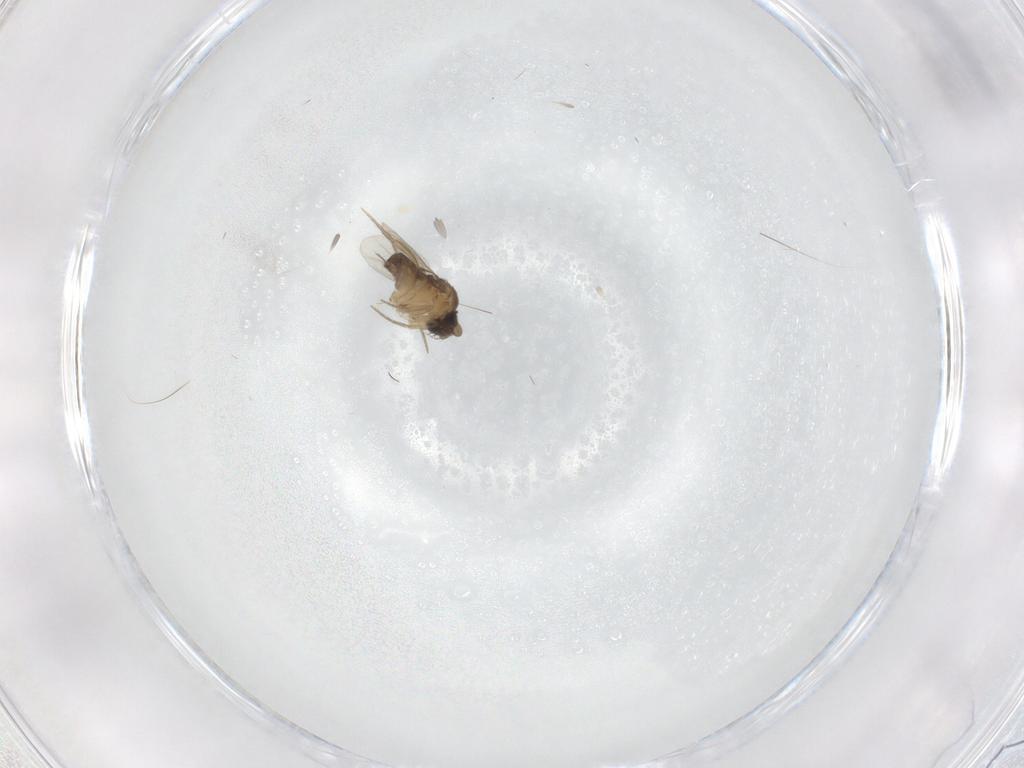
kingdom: Animalia
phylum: Arthropoda
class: Insecta
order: Diptera
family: Phoridae
